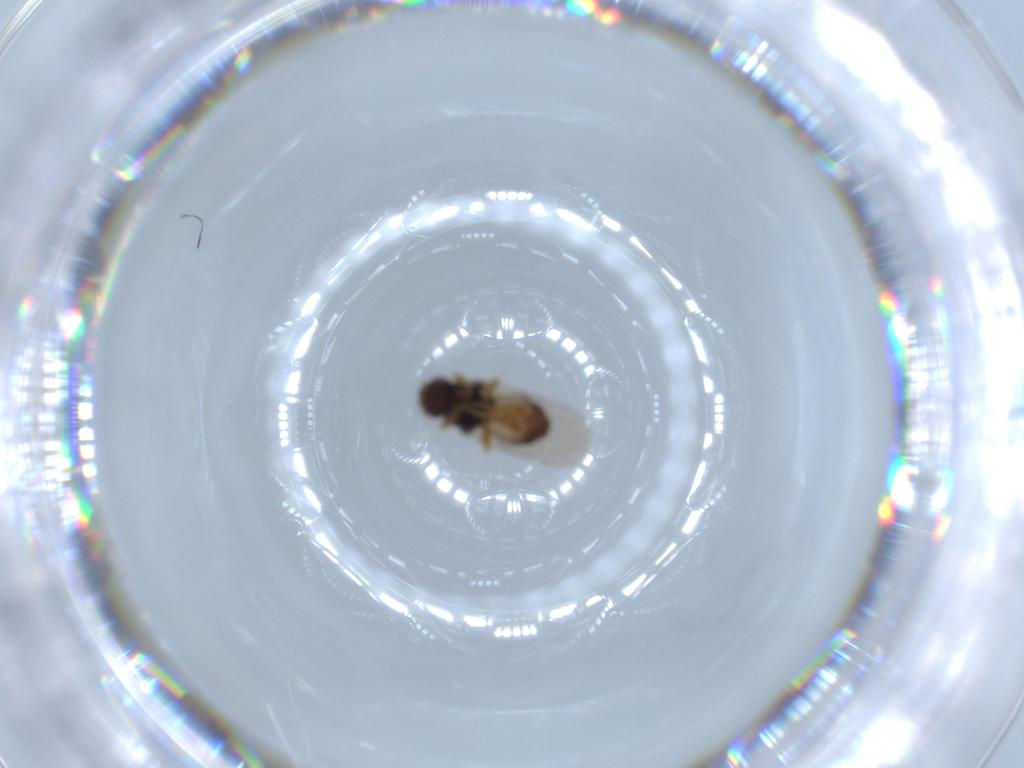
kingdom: Animalia
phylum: Arthropoda
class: Insecta
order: Diptera
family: Chloropidae
